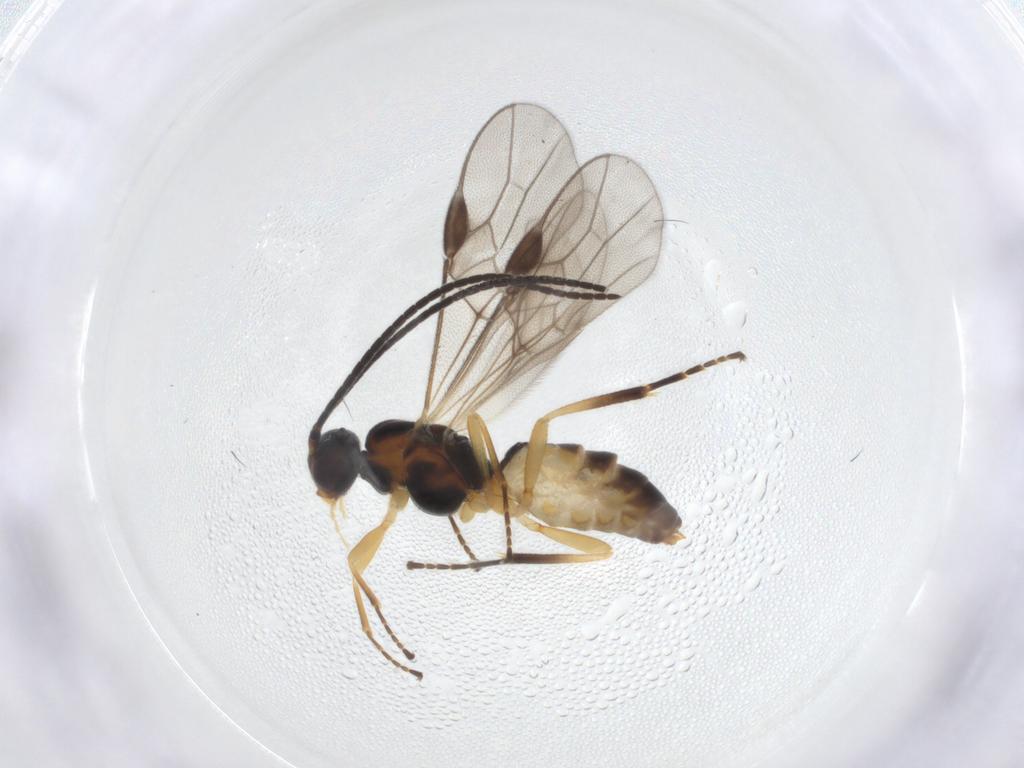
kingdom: Animalia
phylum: Arthropoda
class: Insecta
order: Hymenoptera
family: Braconidae
